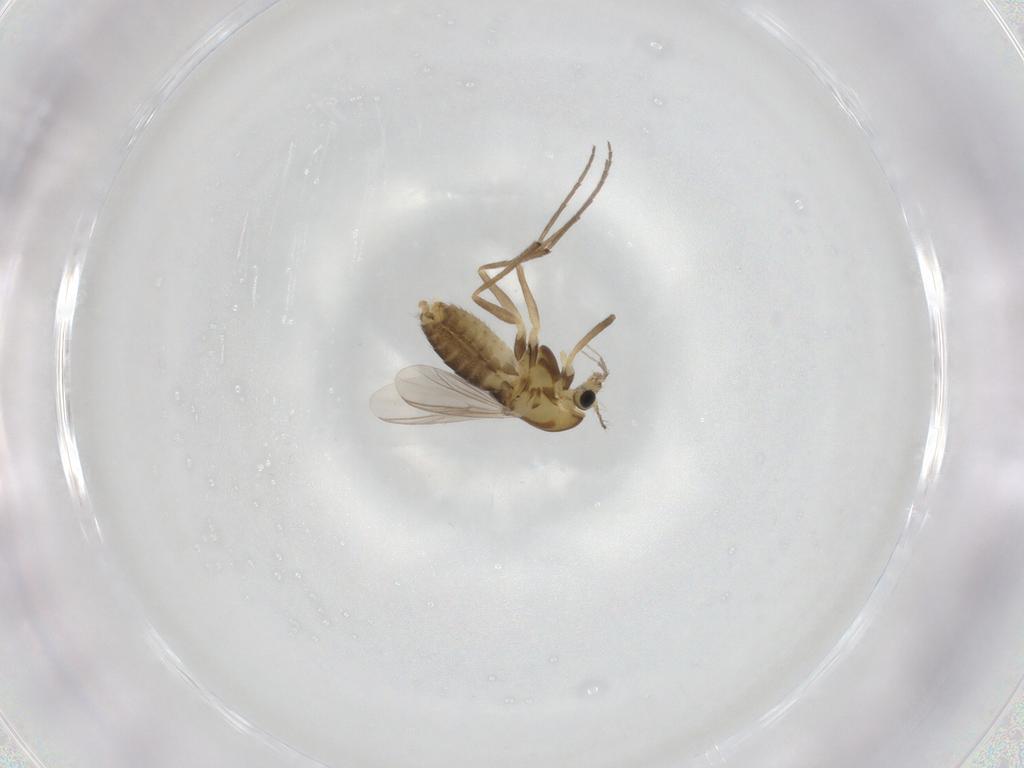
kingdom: Animalia
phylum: Arthropoda
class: Insecta
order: Diptera
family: Chironomidae
